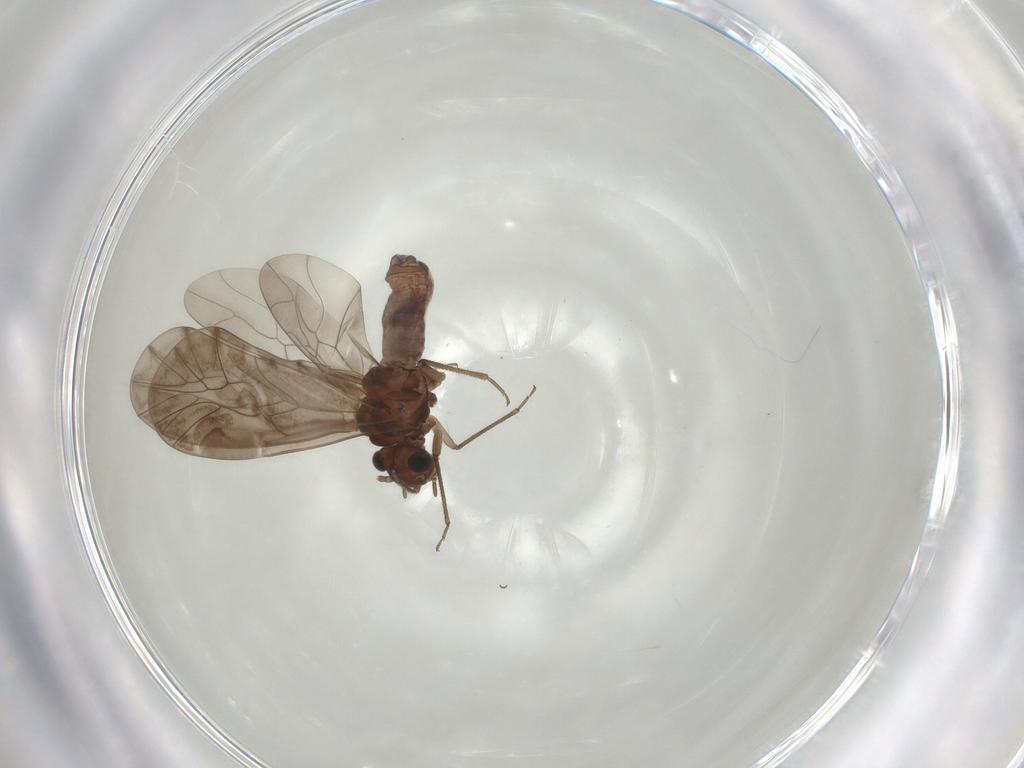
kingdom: Animalia
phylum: Arthropoda
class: Insecta
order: Psocodea
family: Peripsocidae
